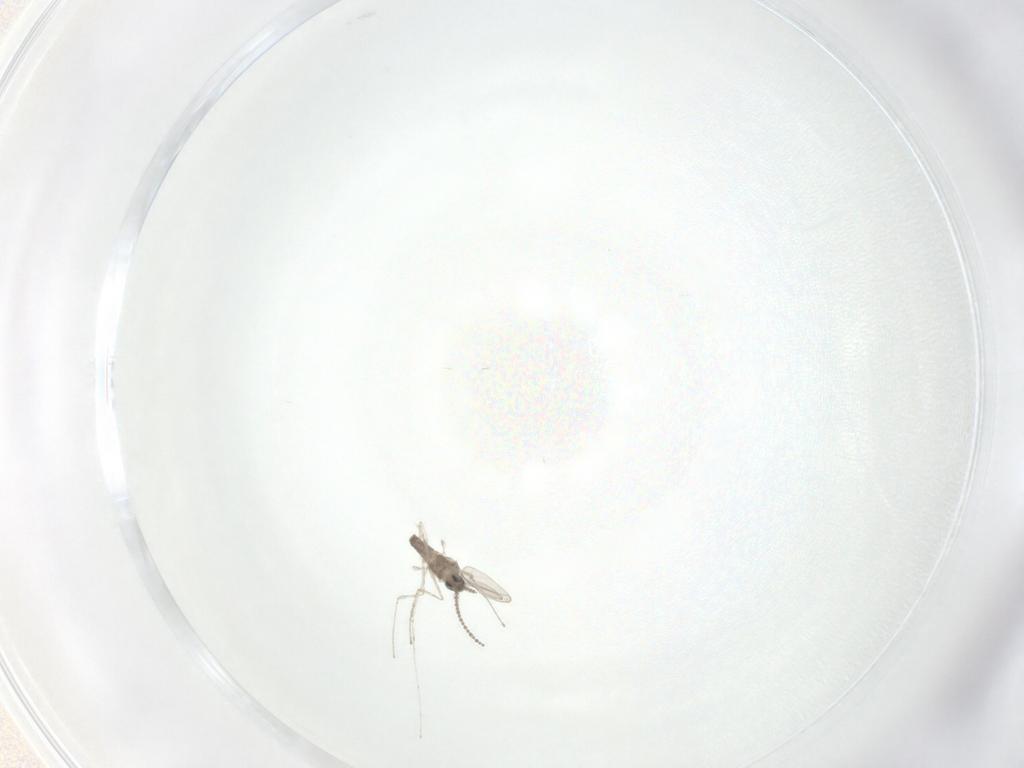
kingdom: Animalia
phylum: Arthropoda
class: Insecta
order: Diptera
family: Cecidomyiidae
